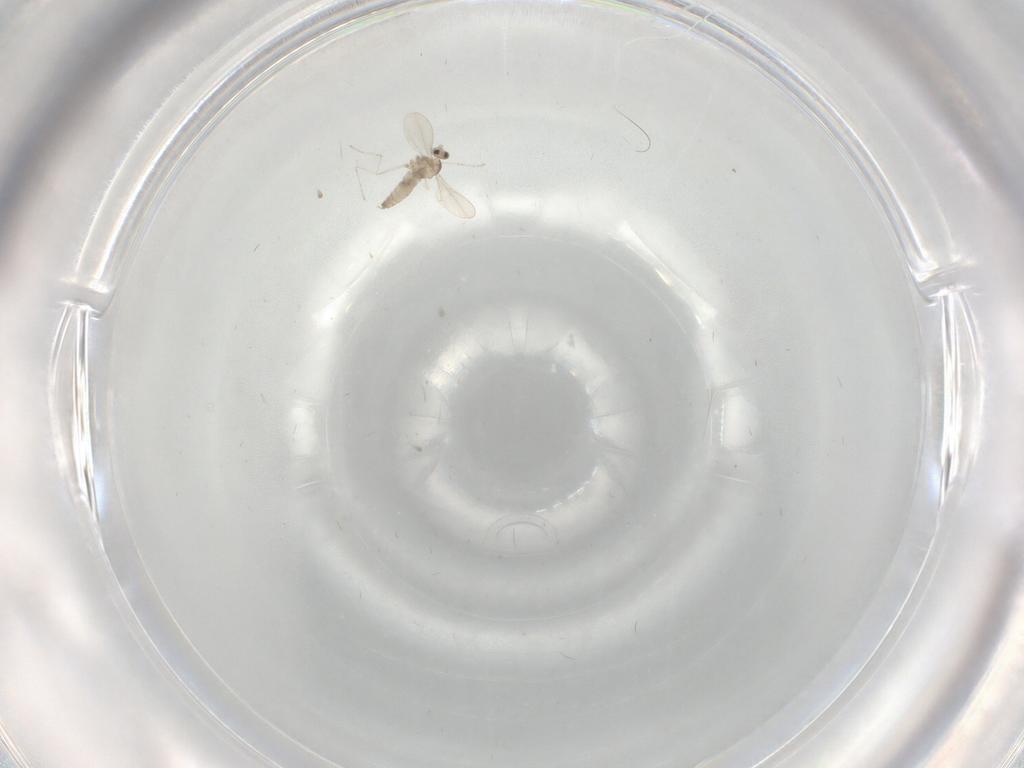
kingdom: Animalia
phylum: Arthropoda
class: Insecta
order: Diptera
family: Cecidomyiidae
